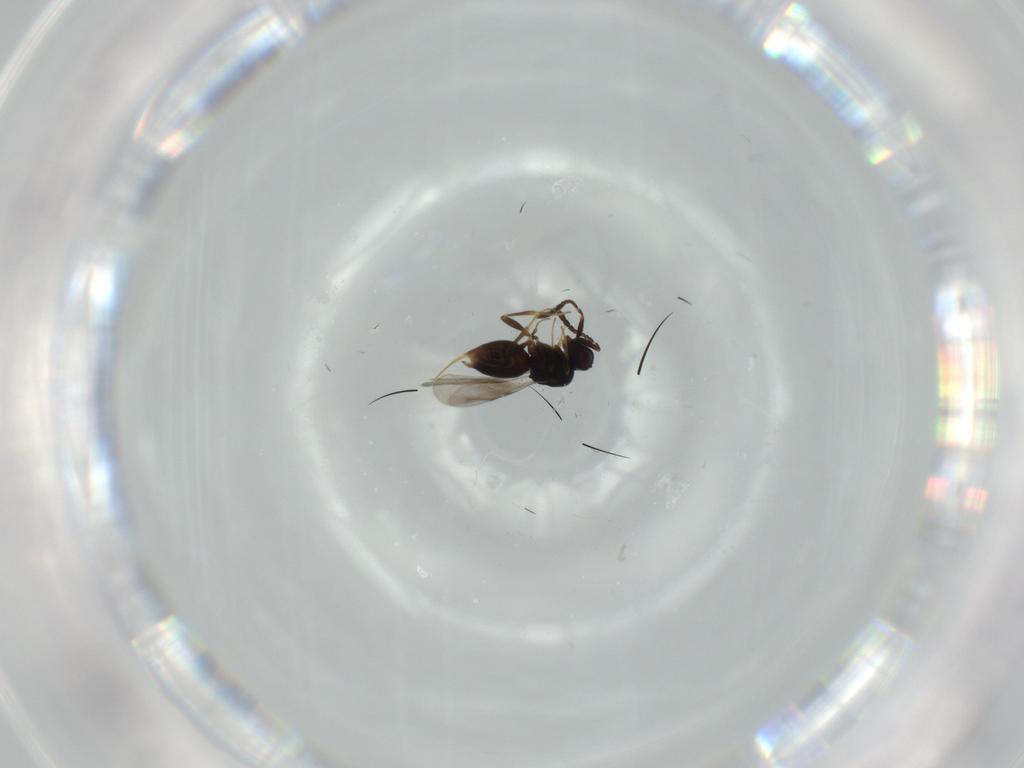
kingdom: Animalia
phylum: Arthropoda
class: Insecta
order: Hymenoptera
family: Ceraphronidae
